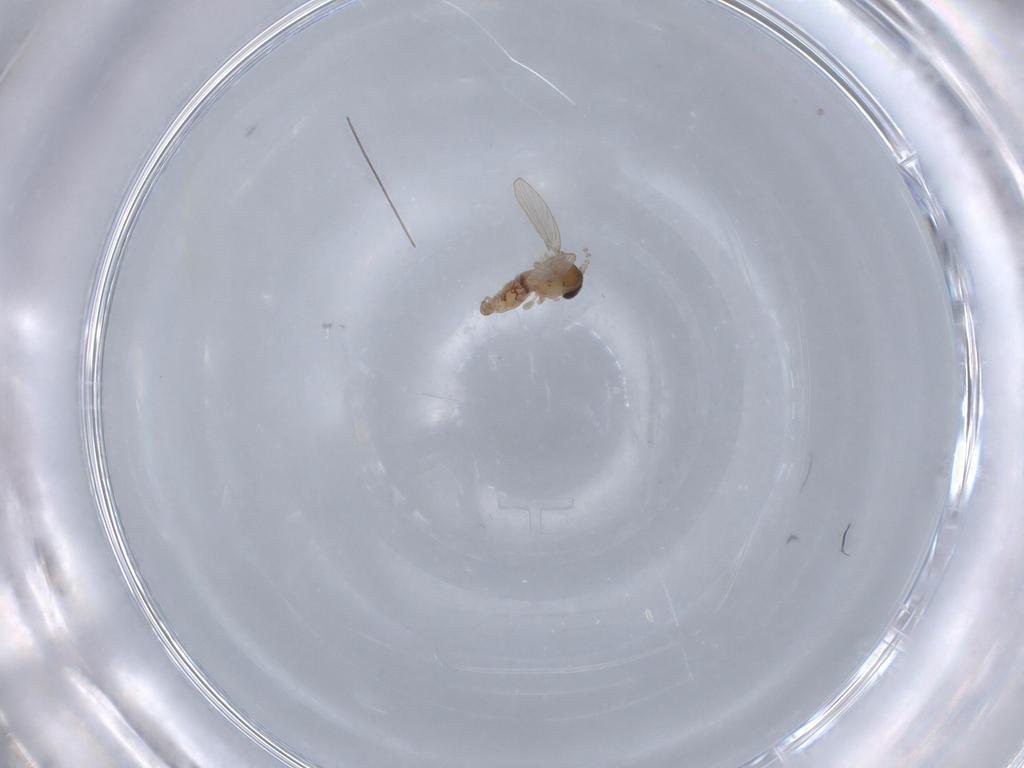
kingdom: Animalia
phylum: Arthropoda
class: Insecta
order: Diptera
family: Psychodidae
